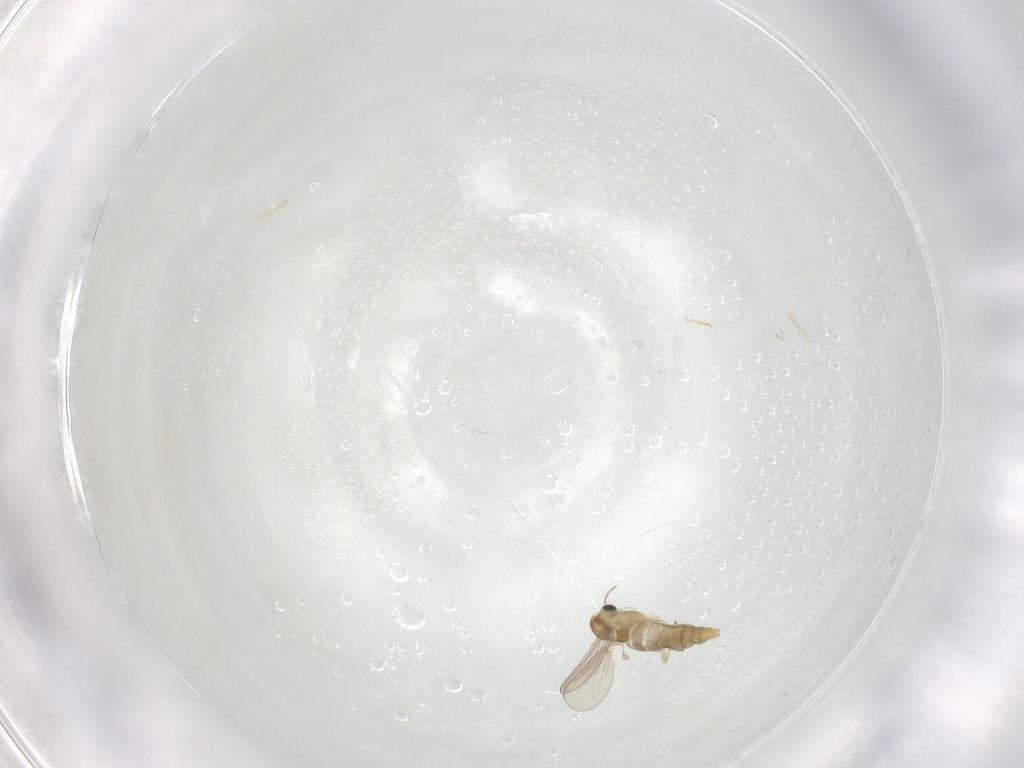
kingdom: Animalia
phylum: Arthropoda
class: Insecta
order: Diptera
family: Chironomidae
